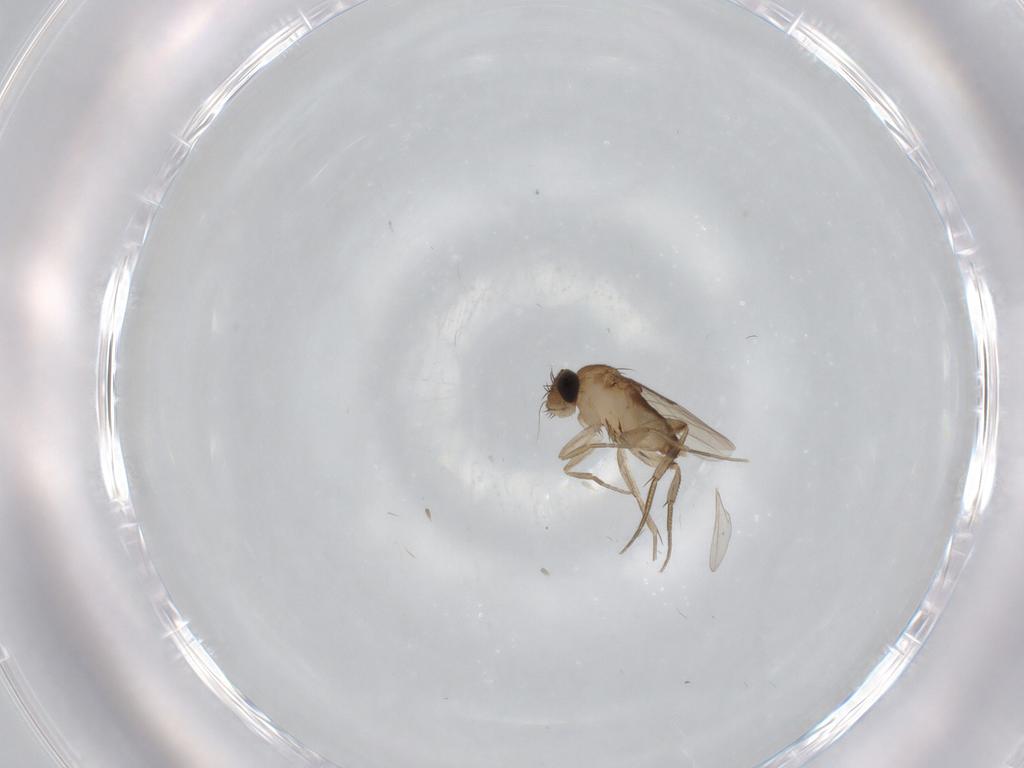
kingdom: Animalia
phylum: Arthropoda
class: Insecta
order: Diptera
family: Phoridae
